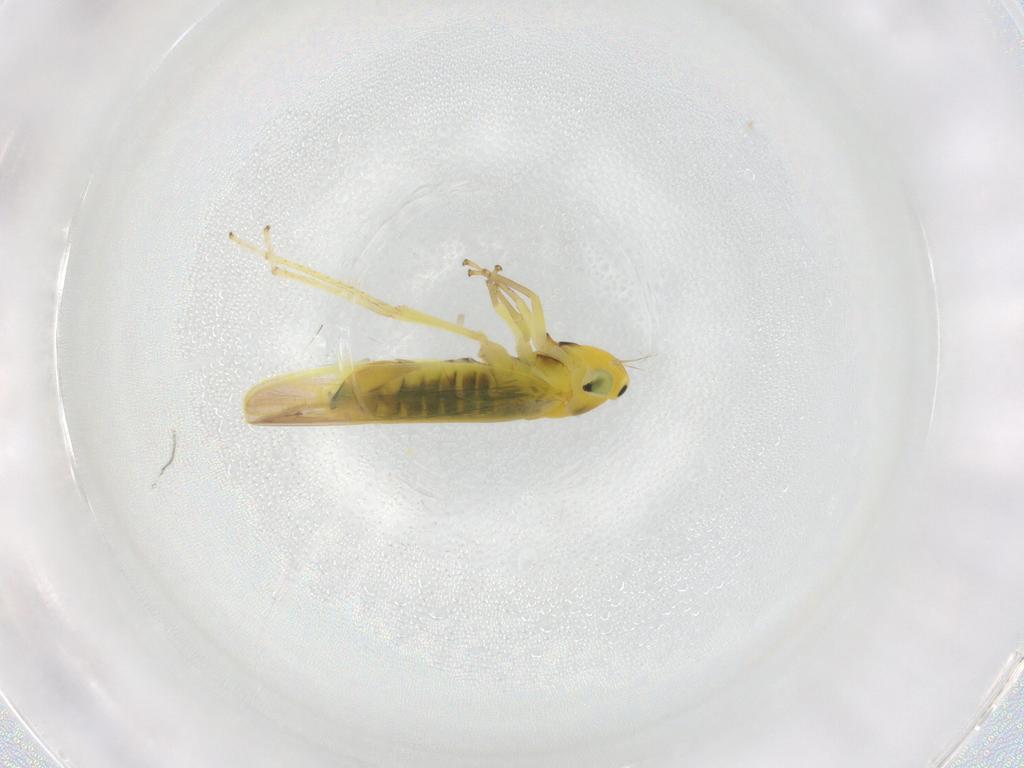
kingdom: Animalia
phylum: Arthropoda
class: Insecta
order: Hemiptera
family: Cicadellidae
